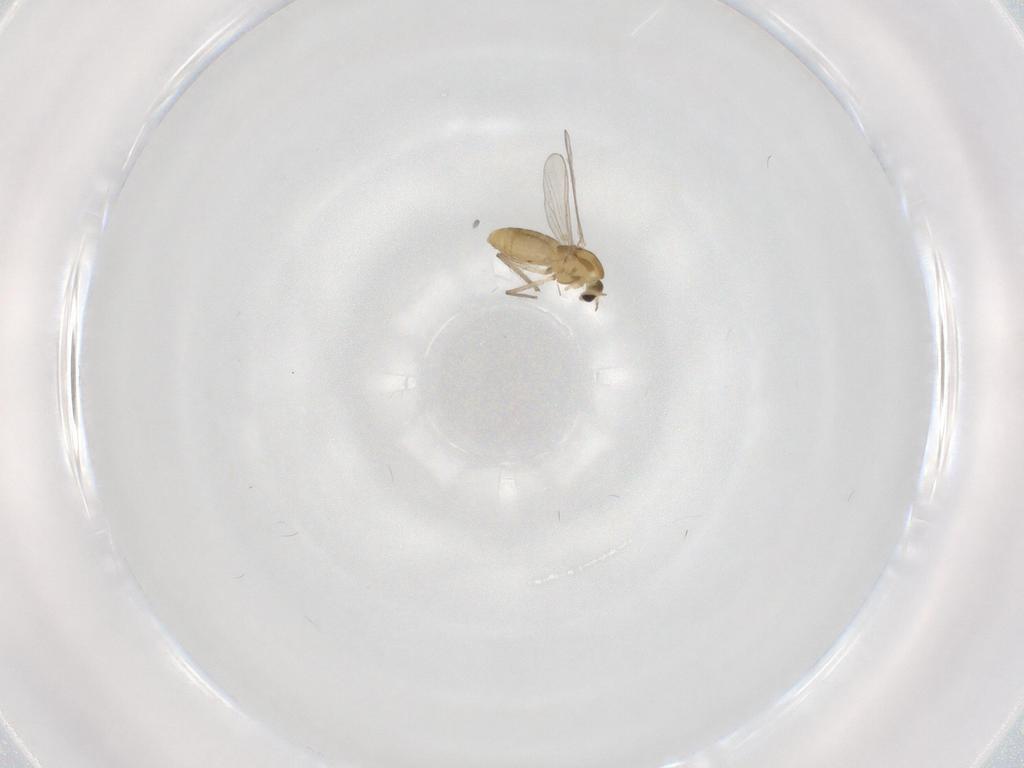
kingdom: Animalia
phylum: Arthropoda
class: Insecta
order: Diptera
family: Chironomidae
